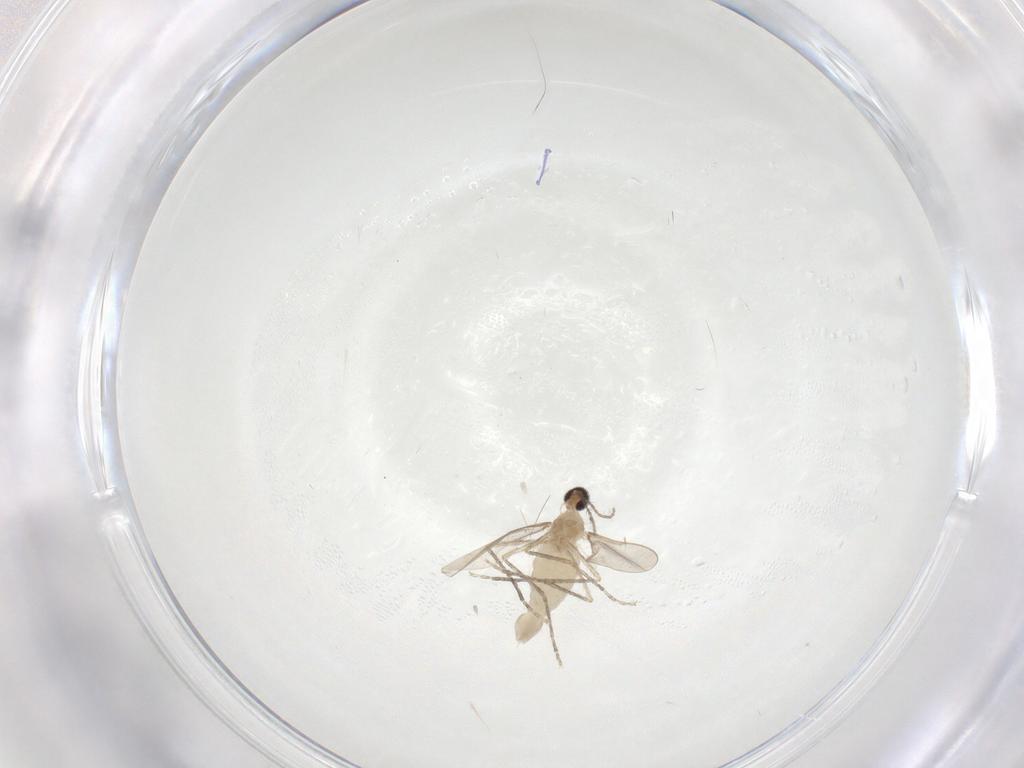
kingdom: Animalia
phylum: Arthropoda
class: Insecta
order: Diptera
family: Cecidomyiidae
